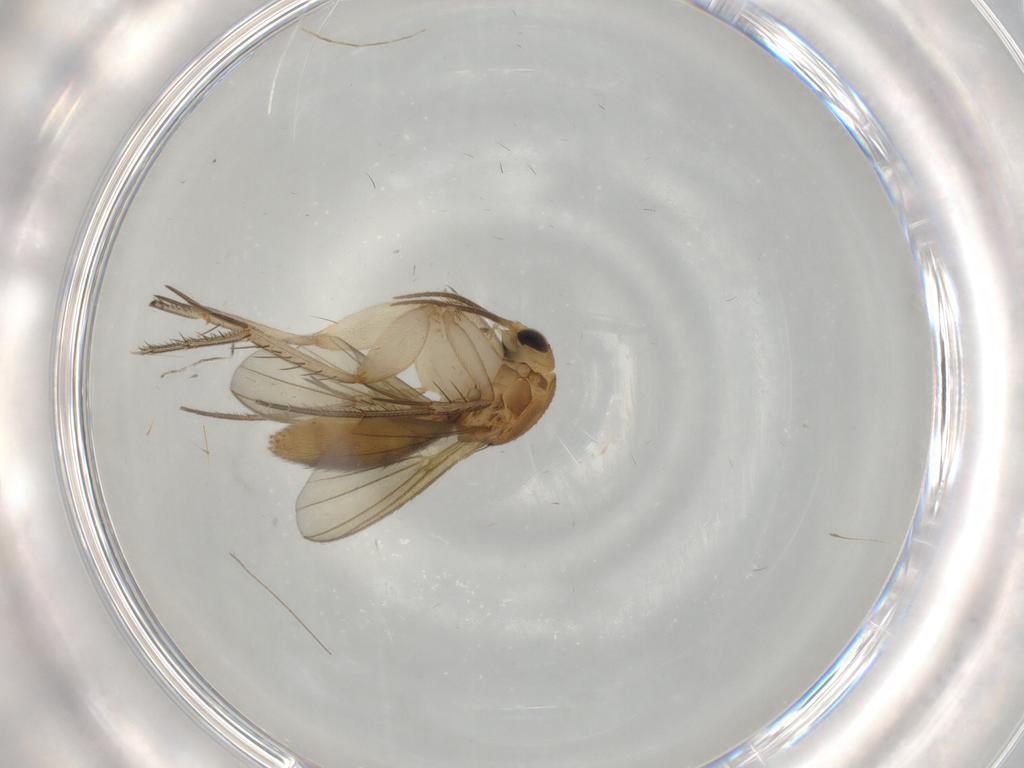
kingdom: Animalia
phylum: Arthropoda
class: Insecta
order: Diptera
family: Mycetophilidae
